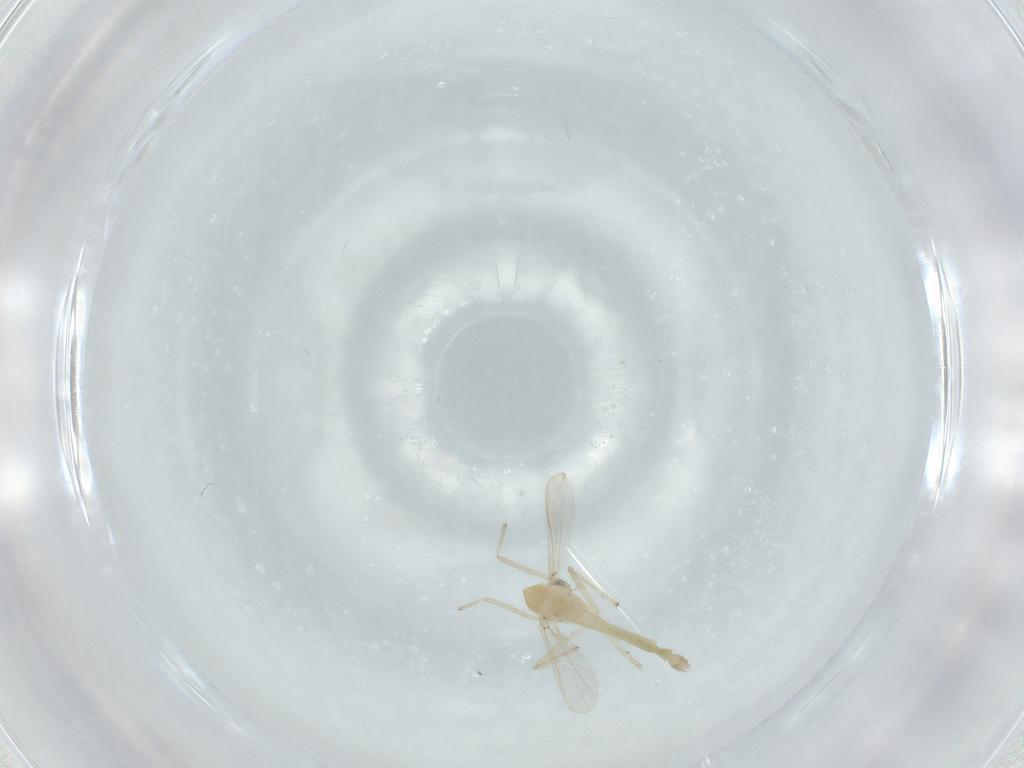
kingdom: Animalia
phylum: Arthropoda
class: Insecta
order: Diptera
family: Chironomidae
